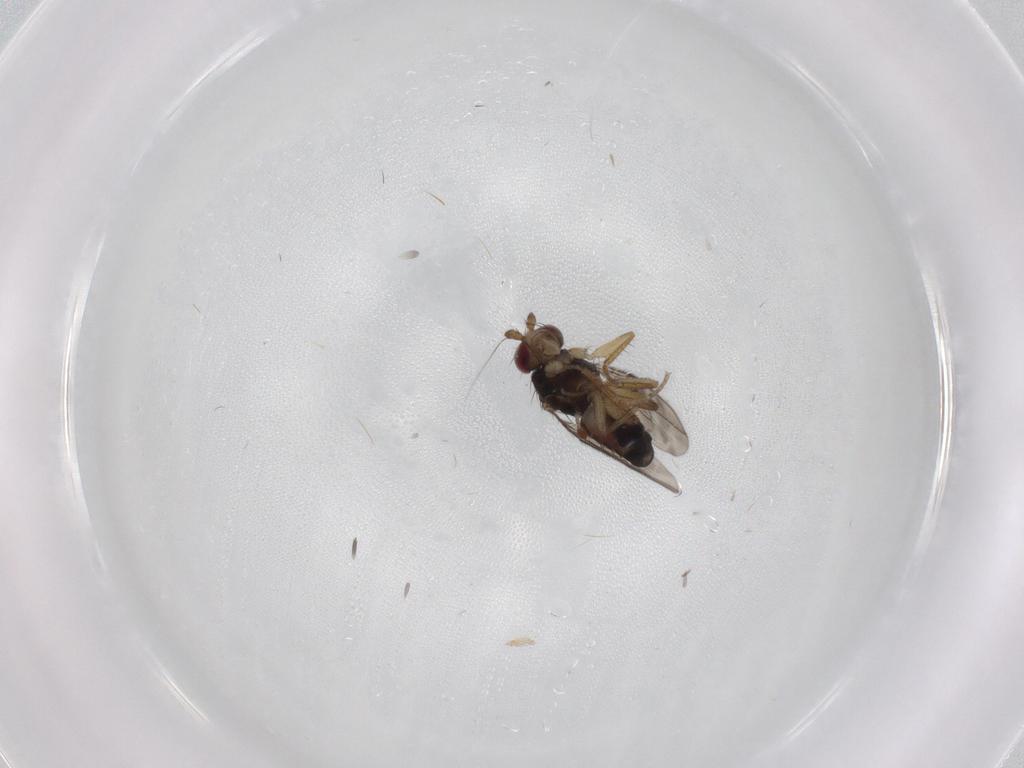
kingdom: Animalia
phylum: Arthropoda
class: Insecta
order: Diptera
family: Sphaeroceridae
